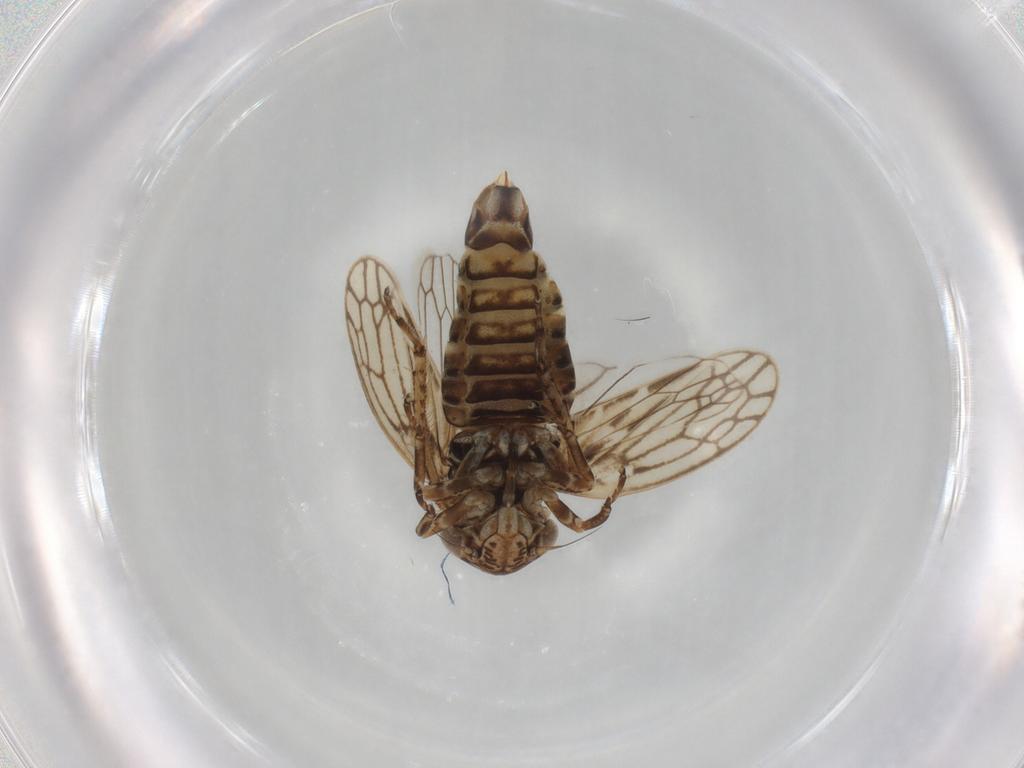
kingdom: Animalia
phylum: Arthropoda
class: Insecta
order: Hemiptera
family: Cicadellidae
